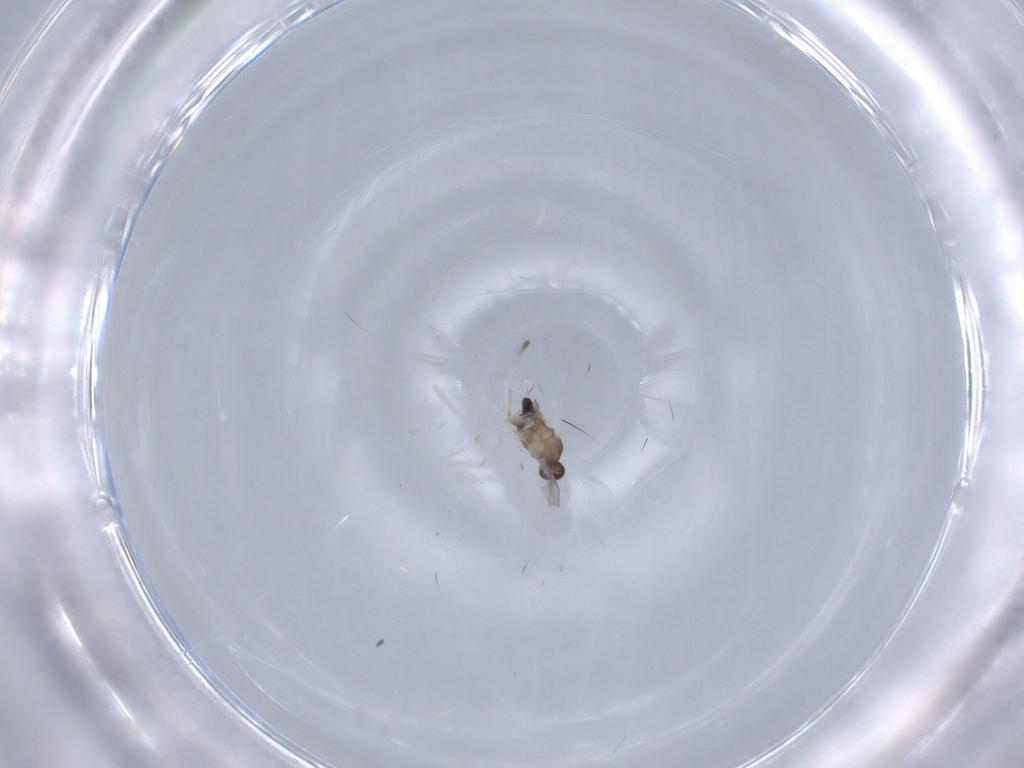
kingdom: Animalia
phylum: Arthropoda
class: Insecta
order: Diptera
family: Cecidomyiidae
